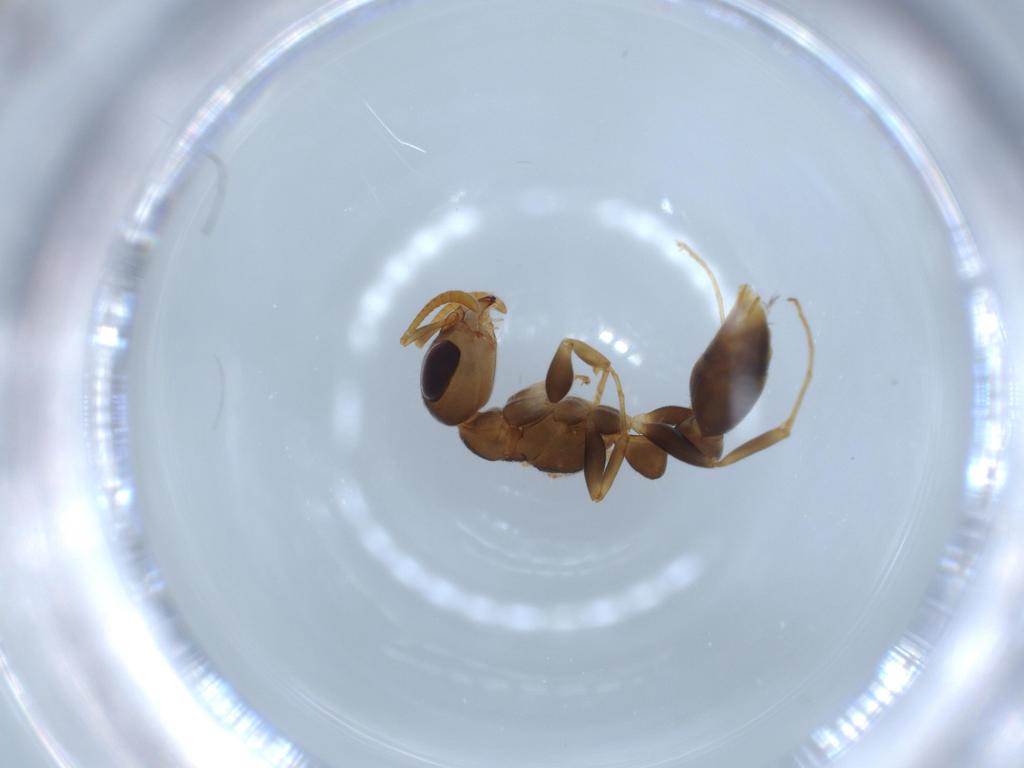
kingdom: Animalia
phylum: Arthropoda
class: Insecta
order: Hymenoptera
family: Formicidae
